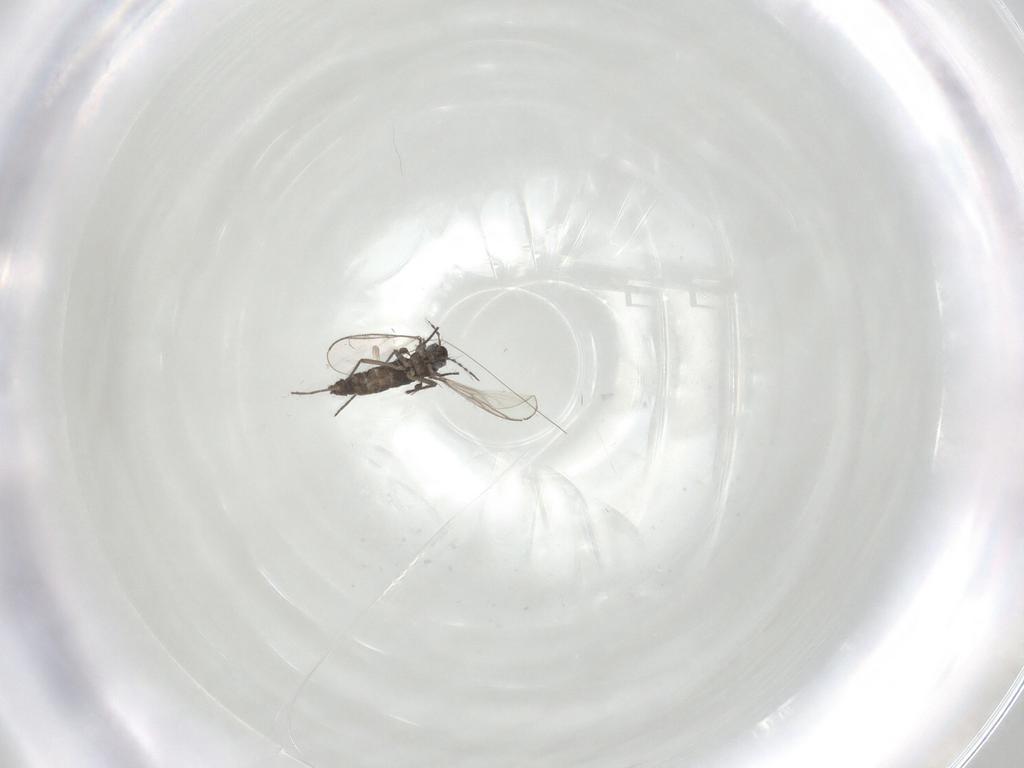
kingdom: Animalia
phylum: Arthropoda
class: Insecta
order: Diptera
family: Chironomidae
